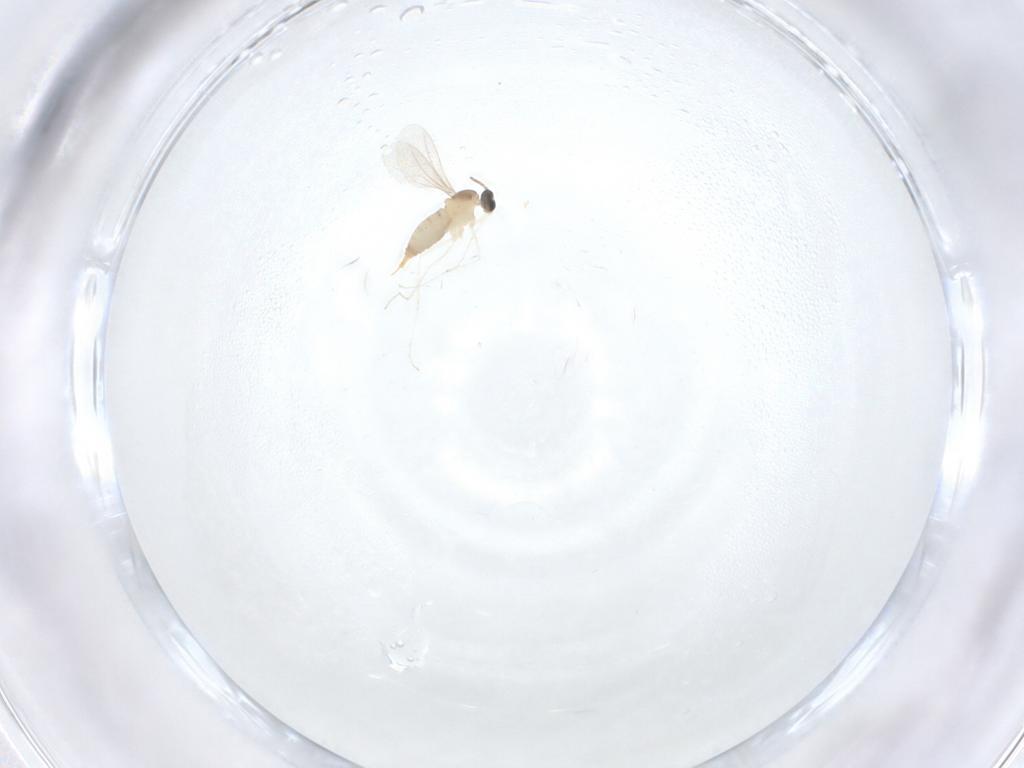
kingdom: Animalia
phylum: Arthropoda
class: Insecta
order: Diptera
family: Cecidomyiidae
